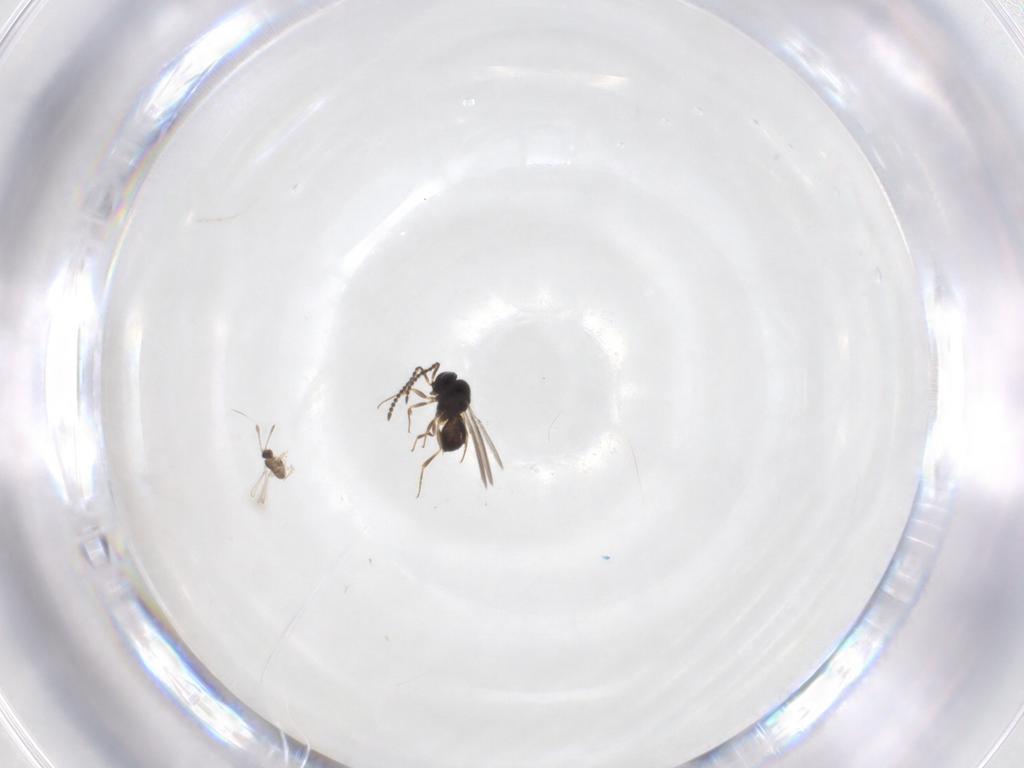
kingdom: Animalia
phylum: Arthropoda
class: Insecta
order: Hymenoptera
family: Scelionidae
